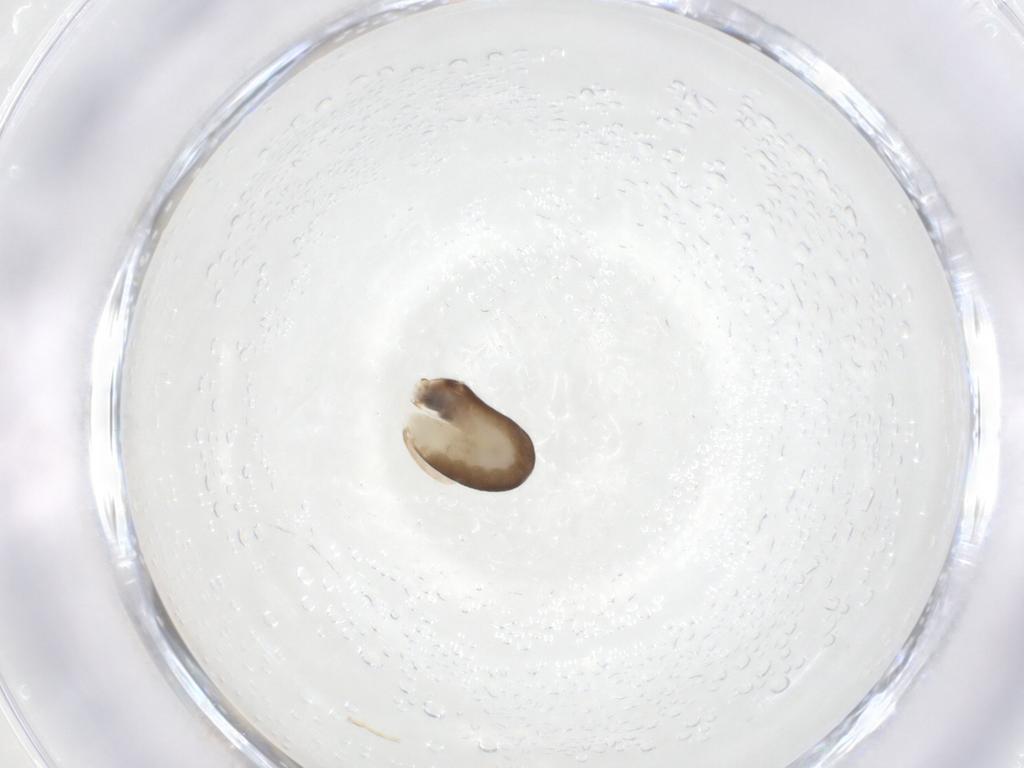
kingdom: Animalia
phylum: Arthropoda
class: Insecta
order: Hymenoptera
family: Dryinidae
